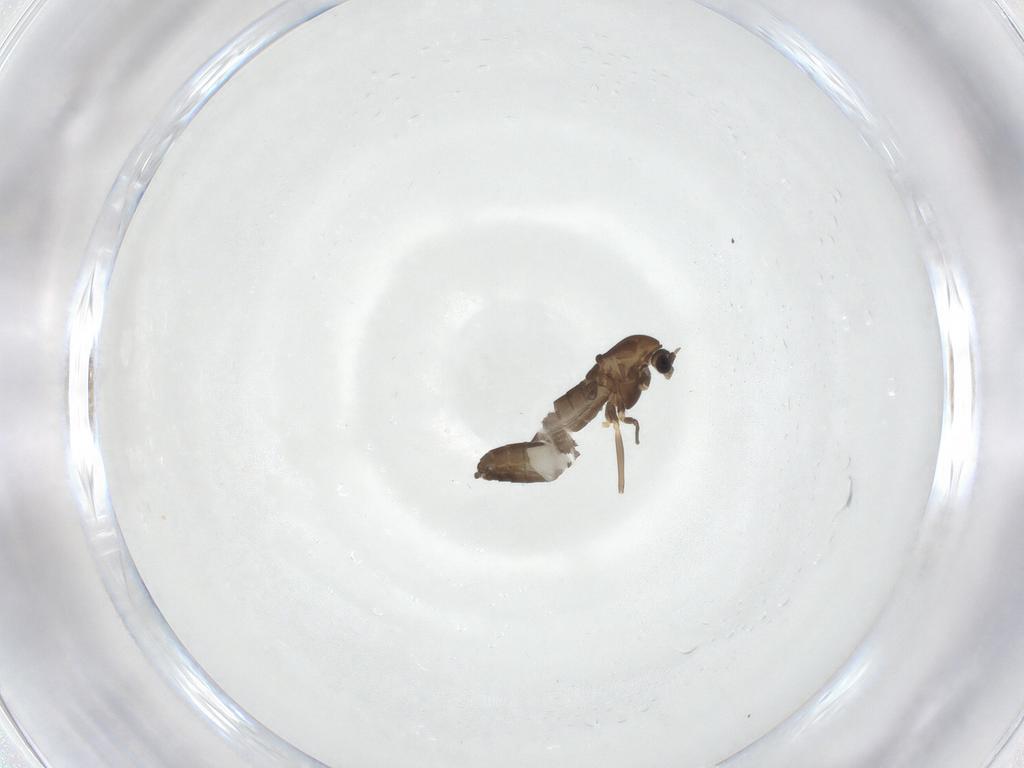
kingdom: Animalia
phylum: Arthropoda
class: Insecta
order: Diptera
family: Chironomidae
